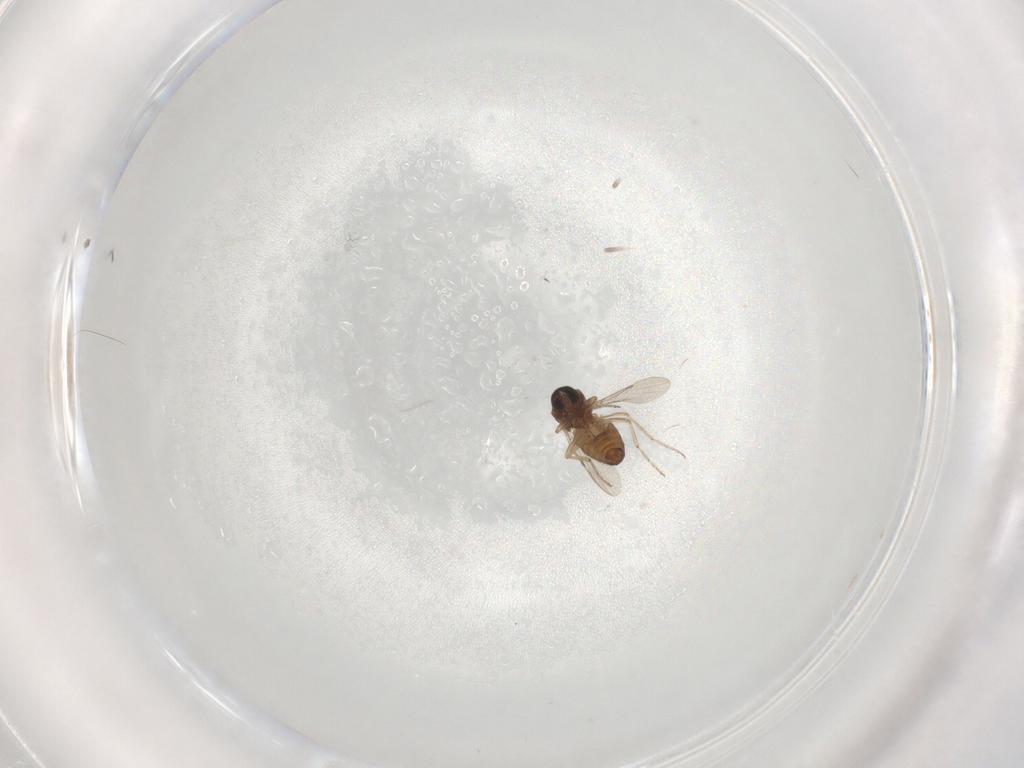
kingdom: Animalia
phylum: Arthropoda
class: Insecta
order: Diptera
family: Ceratopogonidae
